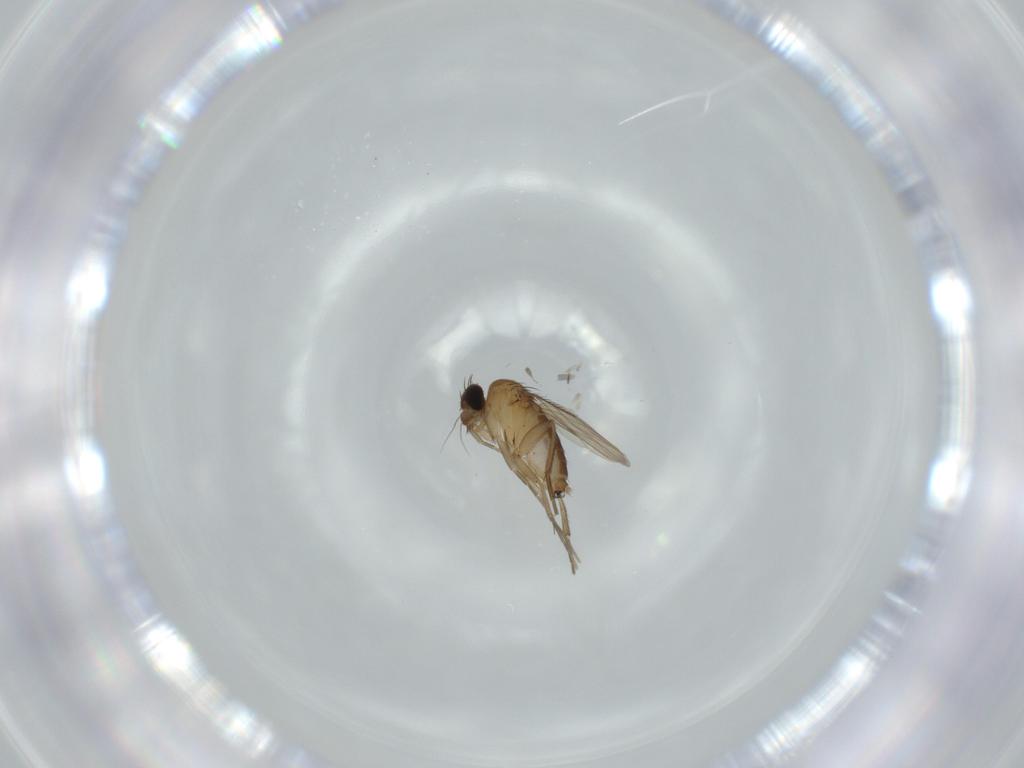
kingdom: Animalia
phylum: Arthropoda
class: Insecta
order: Diptera
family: Phoridae
